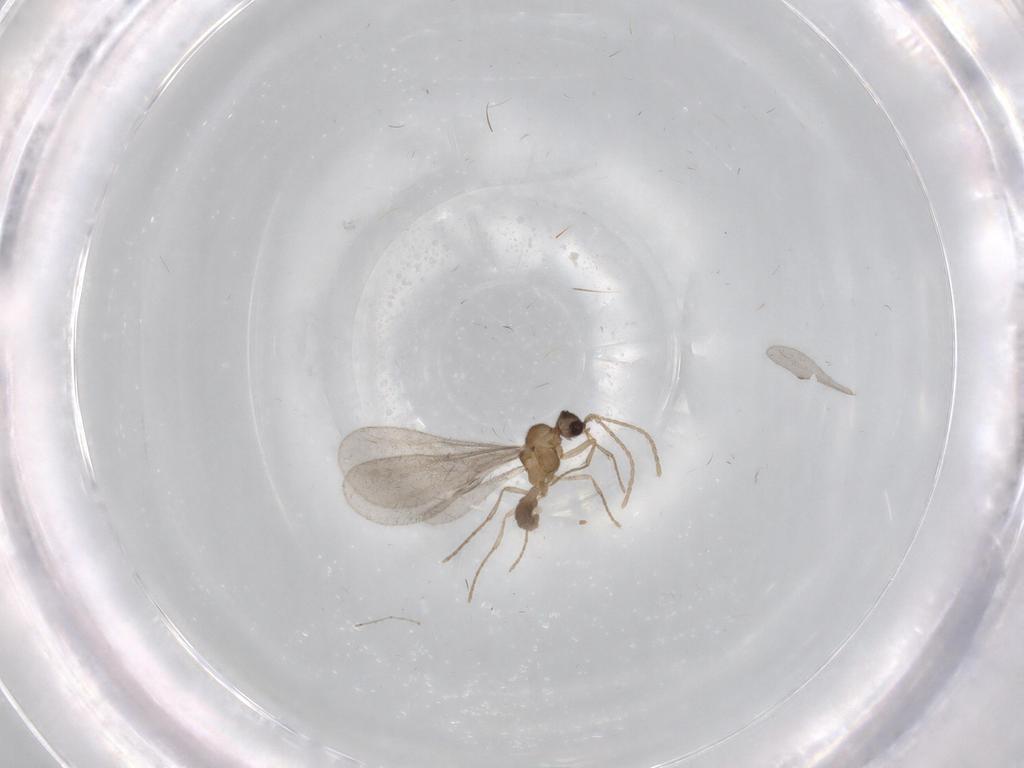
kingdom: Animalia
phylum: Arthropoda
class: Insecta
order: Hymenoptera
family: Formicidae
